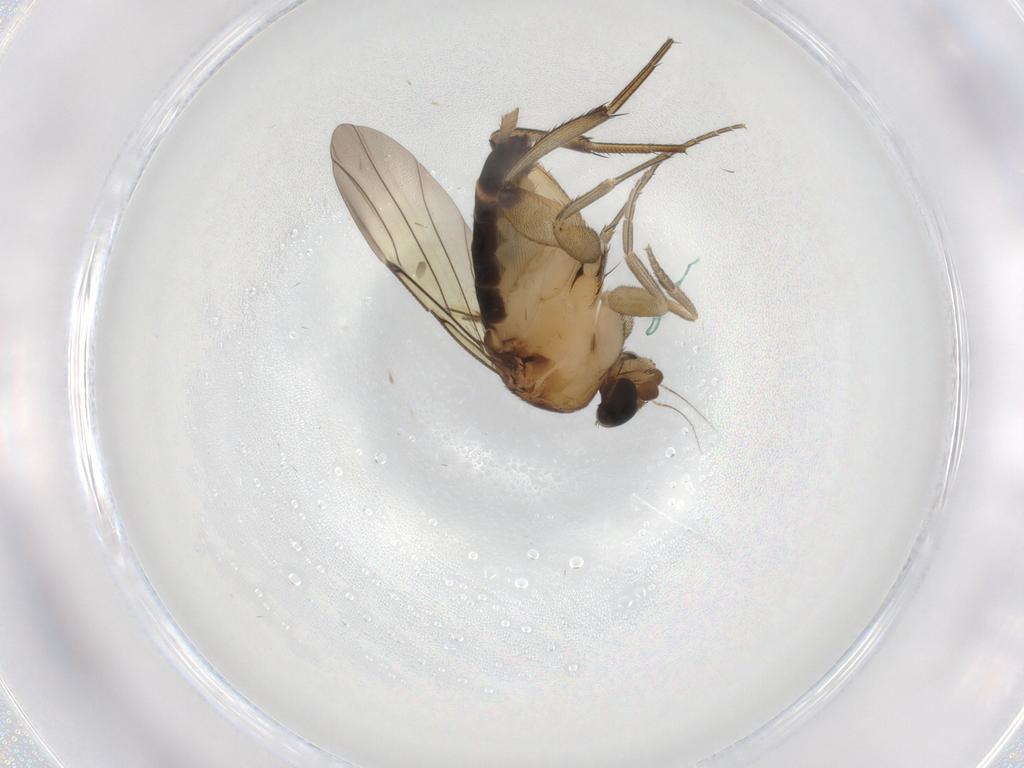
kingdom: Animalia
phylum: Arthropoda
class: Insecta
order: Diptera
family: Phoridae
